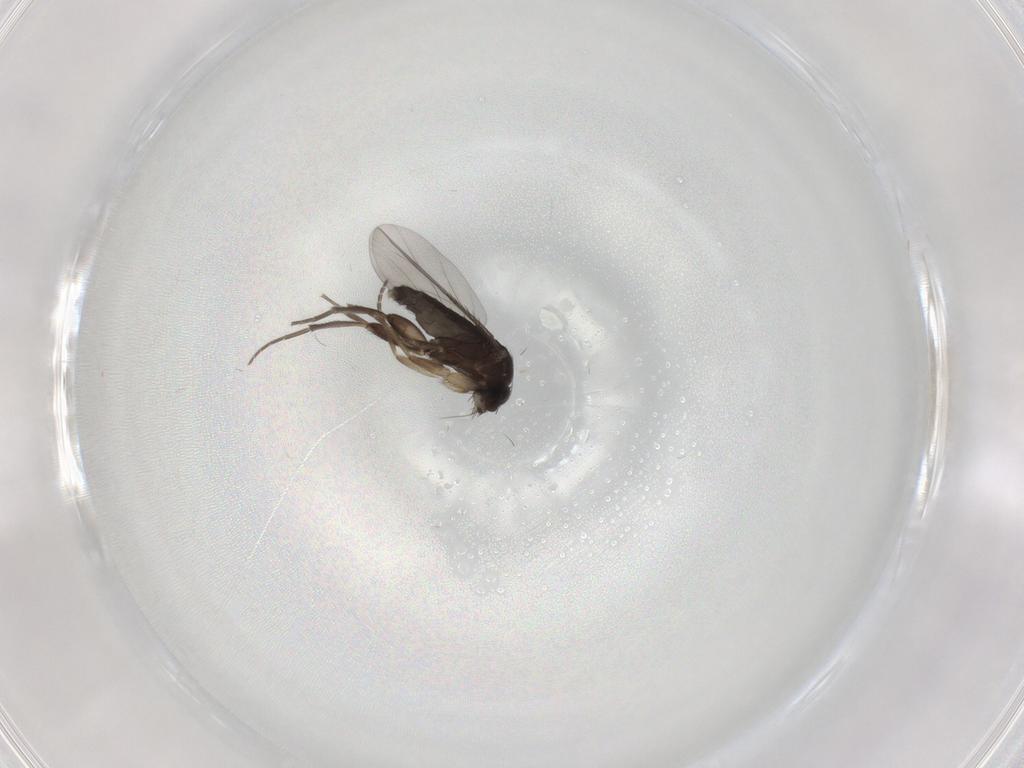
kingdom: Animalia
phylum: Arthropoda
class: Insecta
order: Diptera
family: Phoridae
